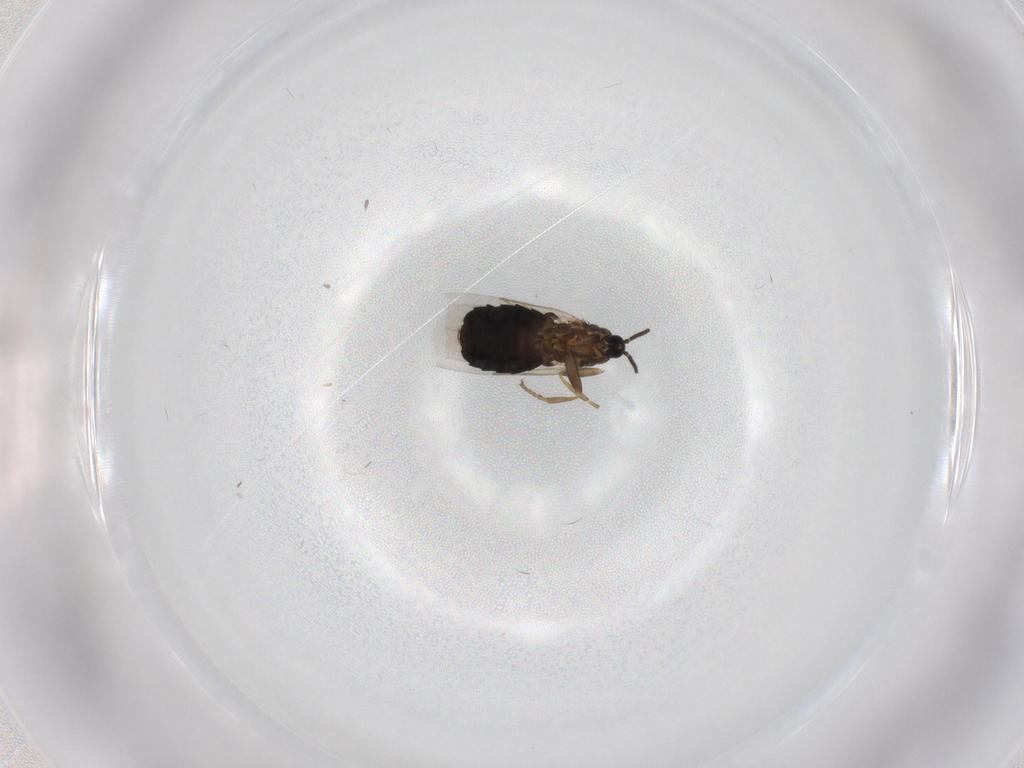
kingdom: Animalia
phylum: Arthropoda
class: Insecta
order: Diptera
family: Scatopsidae
